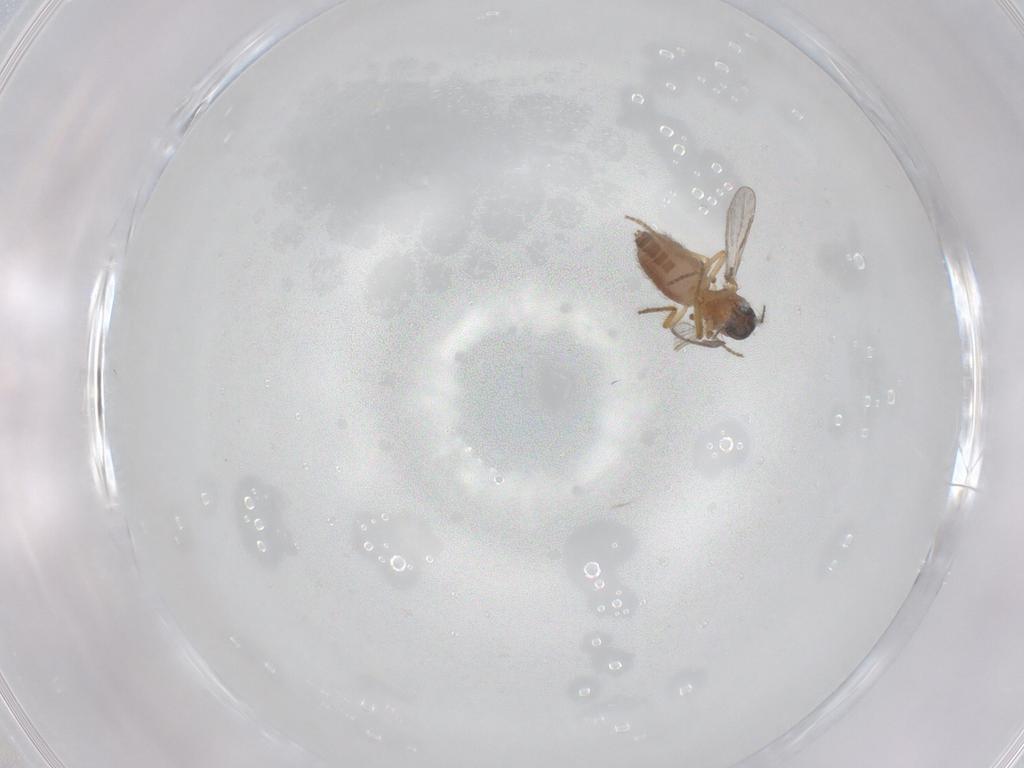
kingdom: Animalia
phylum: Arthropoda
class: Insecta
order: Diptera
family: Ceratopogonidae
